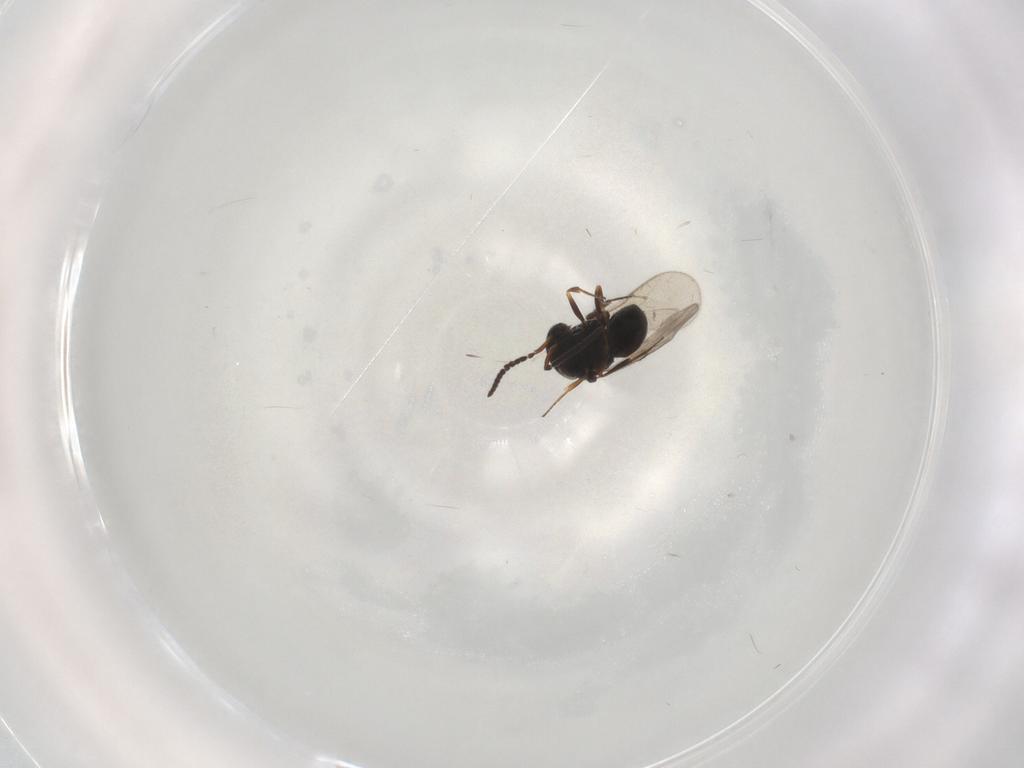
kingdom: Animalia
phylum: Arthropoda
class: Insecta
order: Hymenoptera
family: Scelionidae
